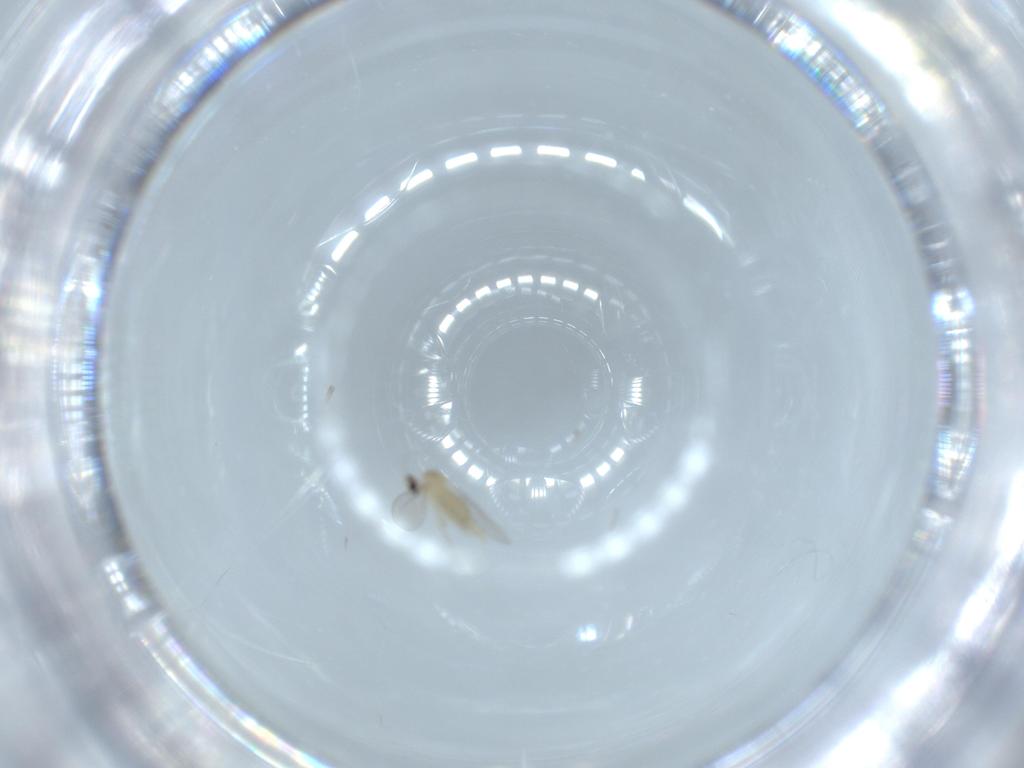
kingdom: Animalia
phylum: Arthropoda
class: Insecta
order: Diptera
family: Cecidomyiidae
